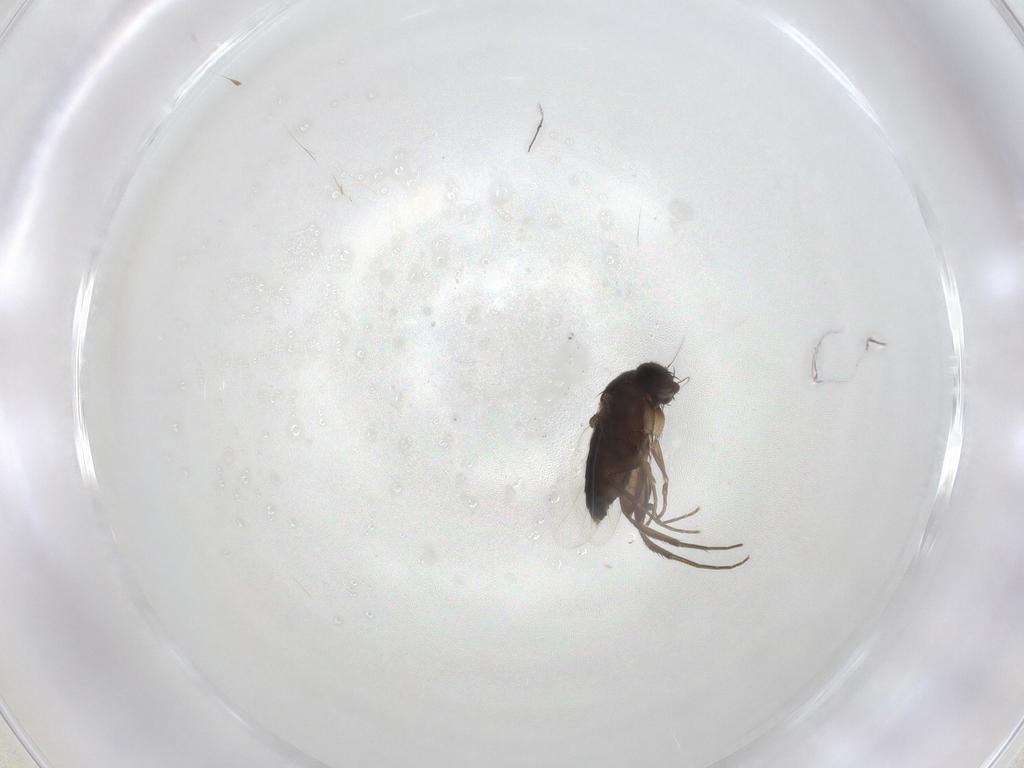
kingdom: Animalia
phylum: Arthropoda
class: Insecta
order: Diptera
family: Phoridae
